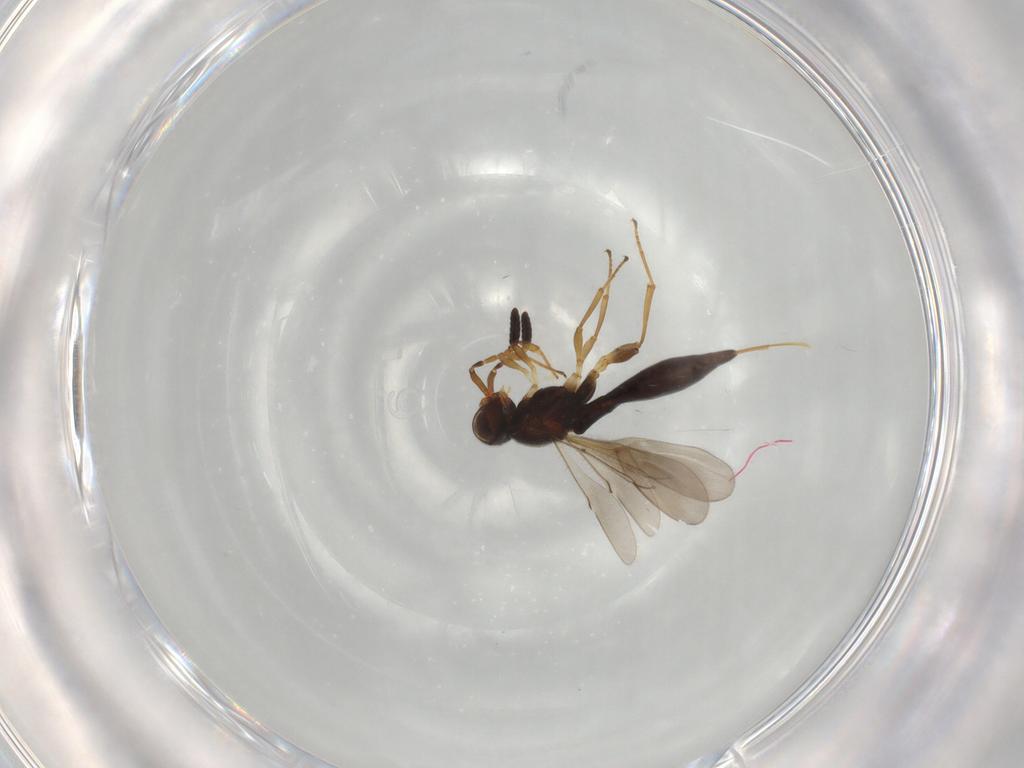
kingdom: Animalia
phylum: Arthropoda
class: Insecta
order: Hymenoptera
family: Scelionidae
